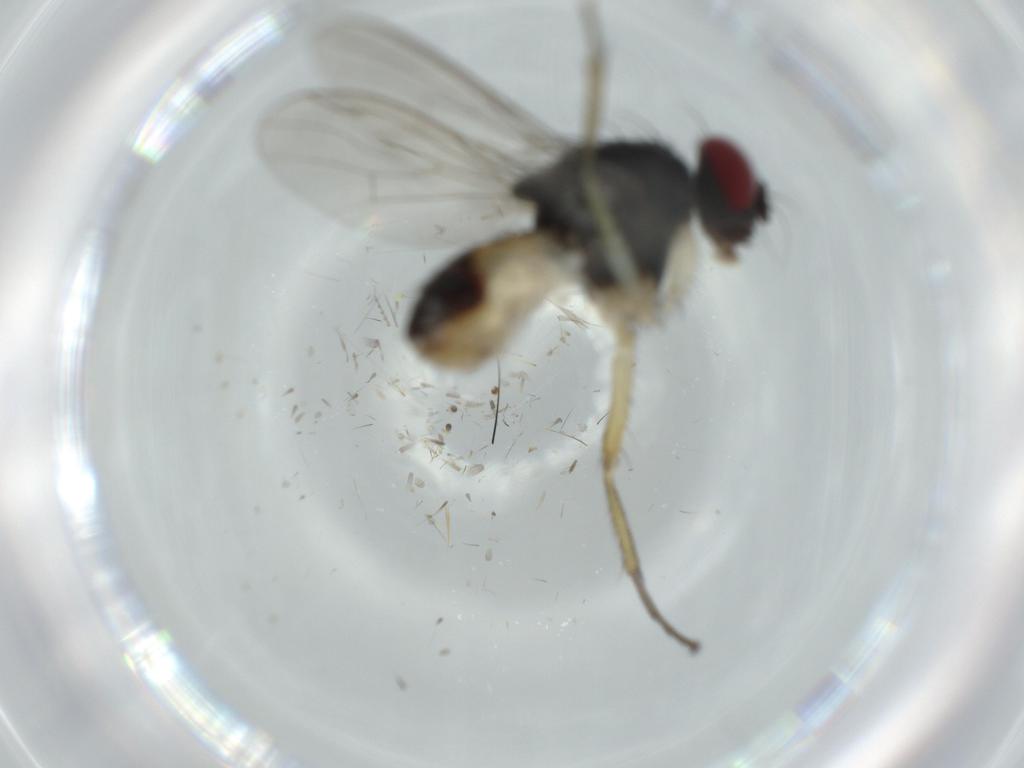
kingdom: Animalia
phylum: Arthropoda
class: Insecta
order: Diptera
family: Muscidae
